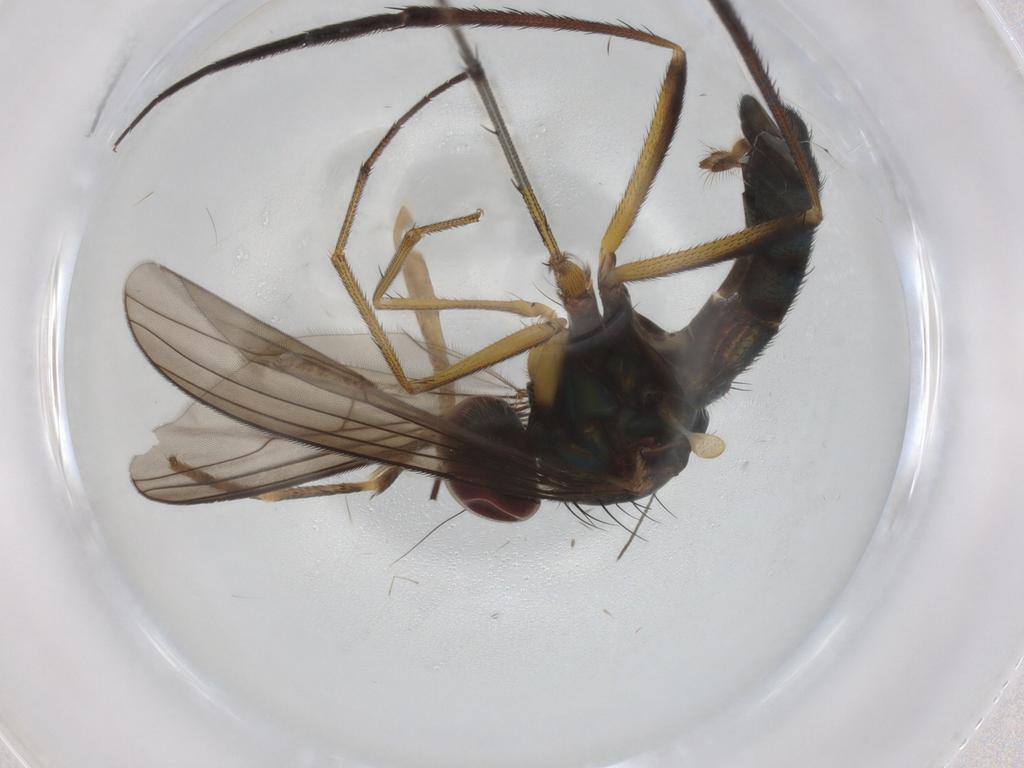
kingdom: Animalia
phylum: Arthropoda
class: Insecta
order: Diptera
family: Dolichopodidae
